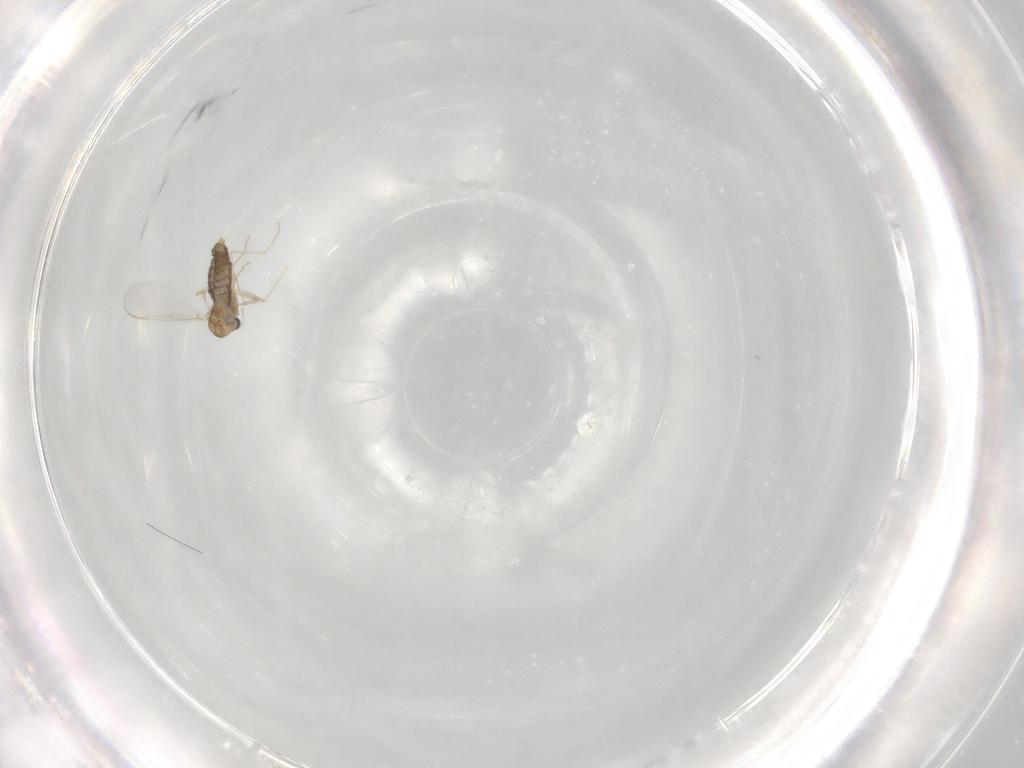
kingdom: Animalia
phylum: Arthropoda
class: Insecta
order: Diptera
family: Chironomidae
